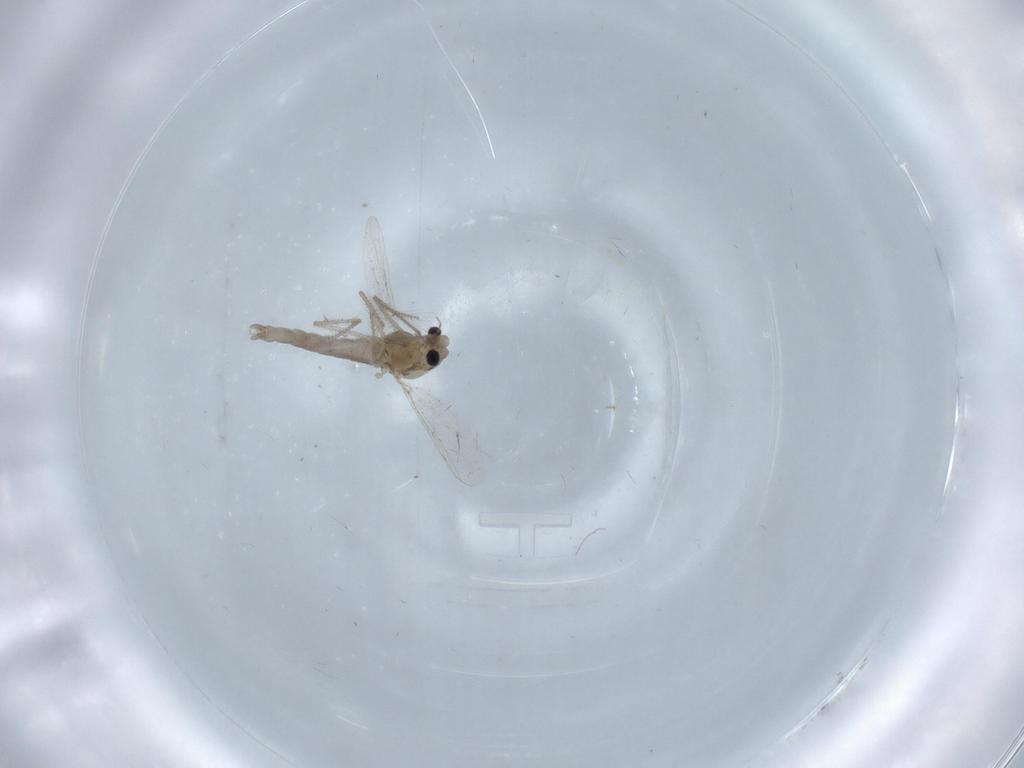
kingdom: Animalia
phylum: Arthropoda
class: Insecta
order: Diptera
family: Chironomidae
